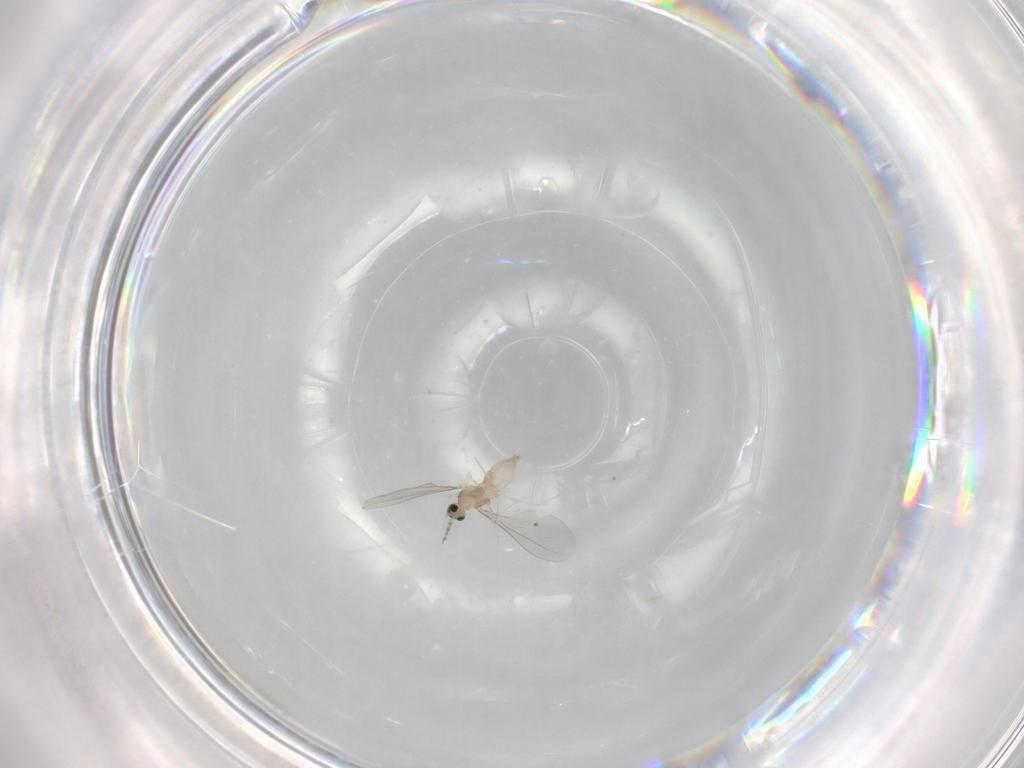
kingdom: Animalia
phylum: Arthropoda
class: Insecta
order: Diptera
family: Cecidomyiidae
